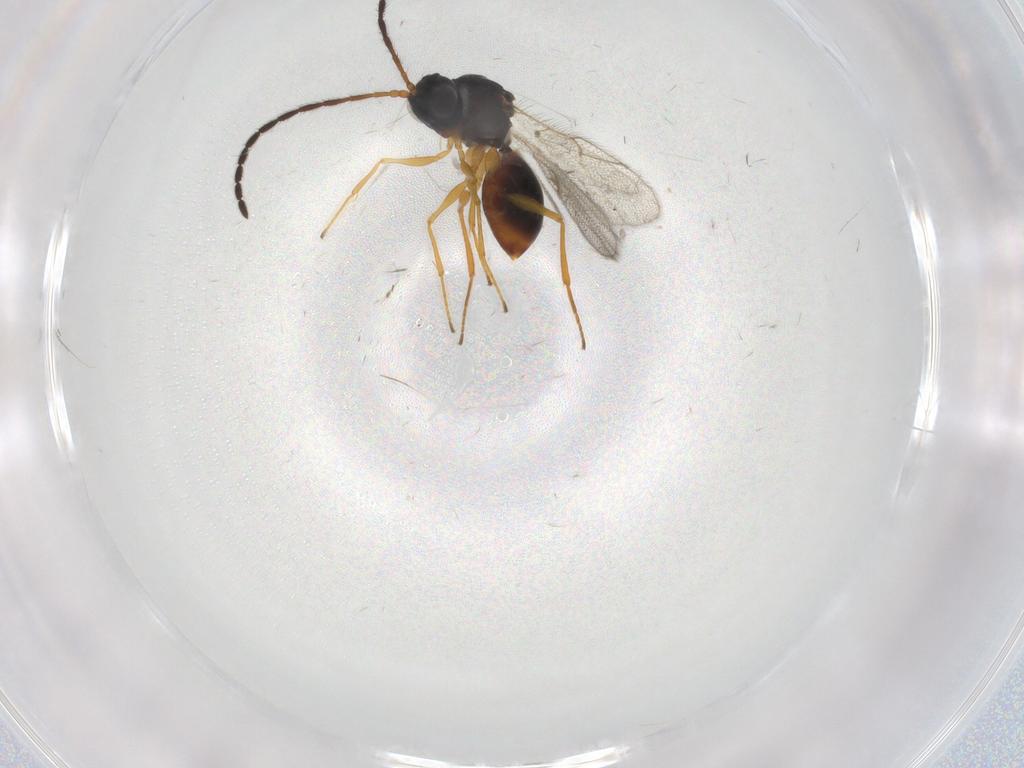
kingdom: Animalia
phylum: Arthropoda
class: Insecta
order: Hymenoptera
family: Figitidae
